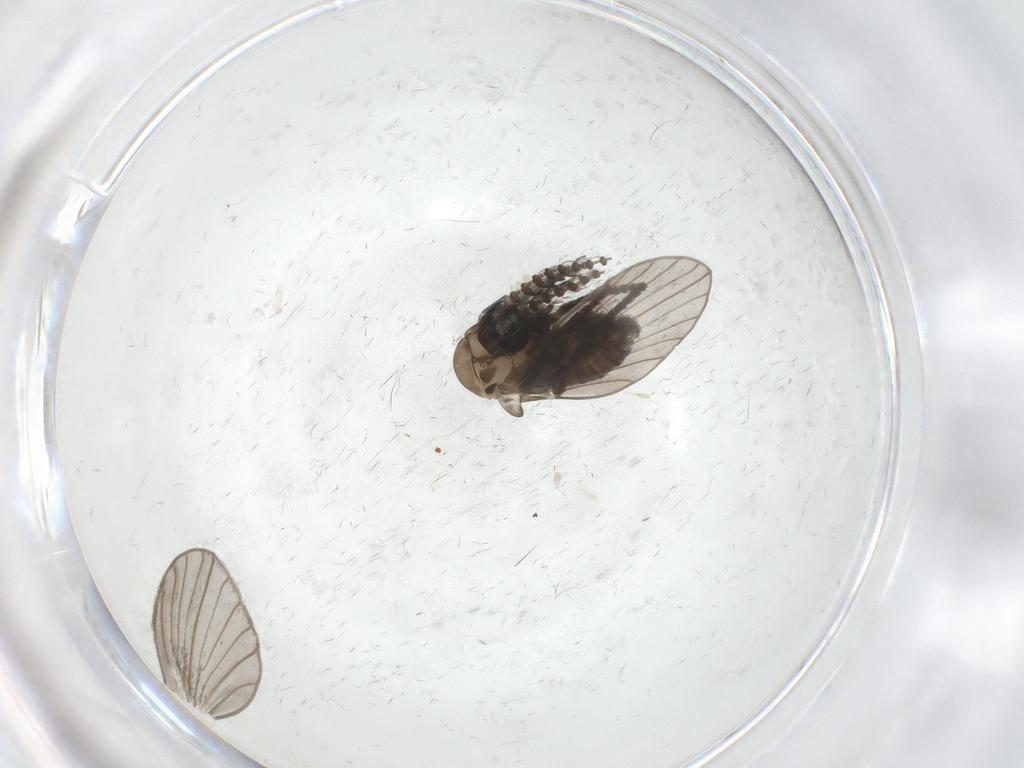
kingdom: Animalia
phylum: Arthropoda
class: Insecta
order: Diptera
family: Psychodidae
